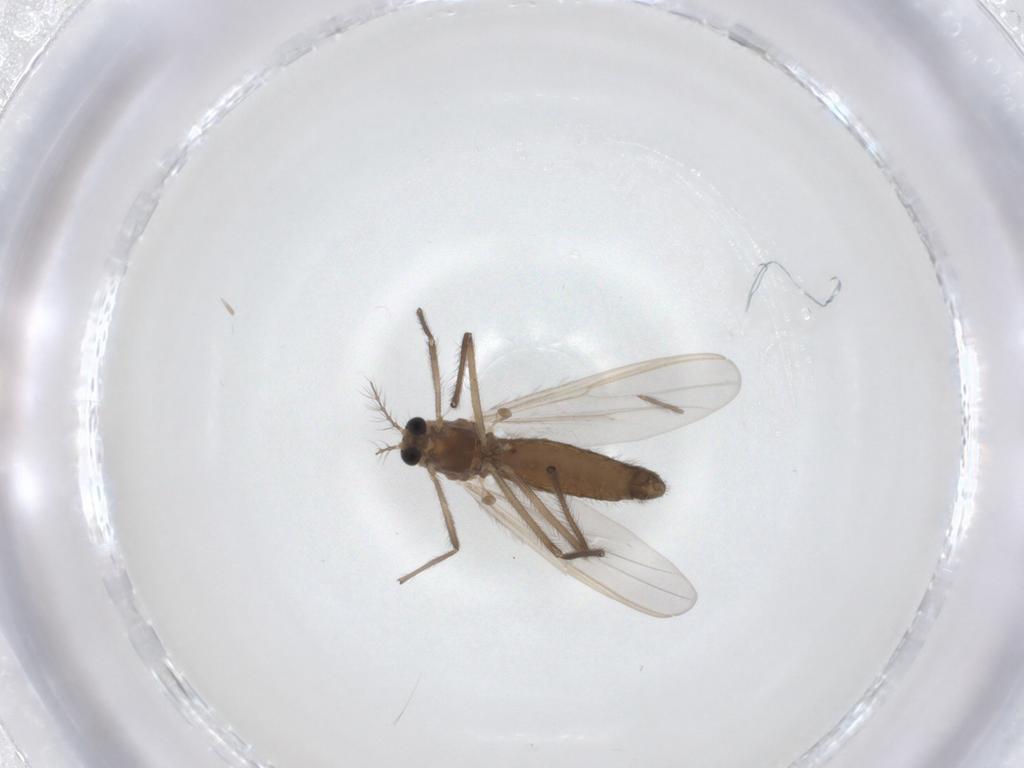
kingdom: Animalia
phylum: Arthropoda
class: Insecta
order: Diptera
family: Chironomidae
